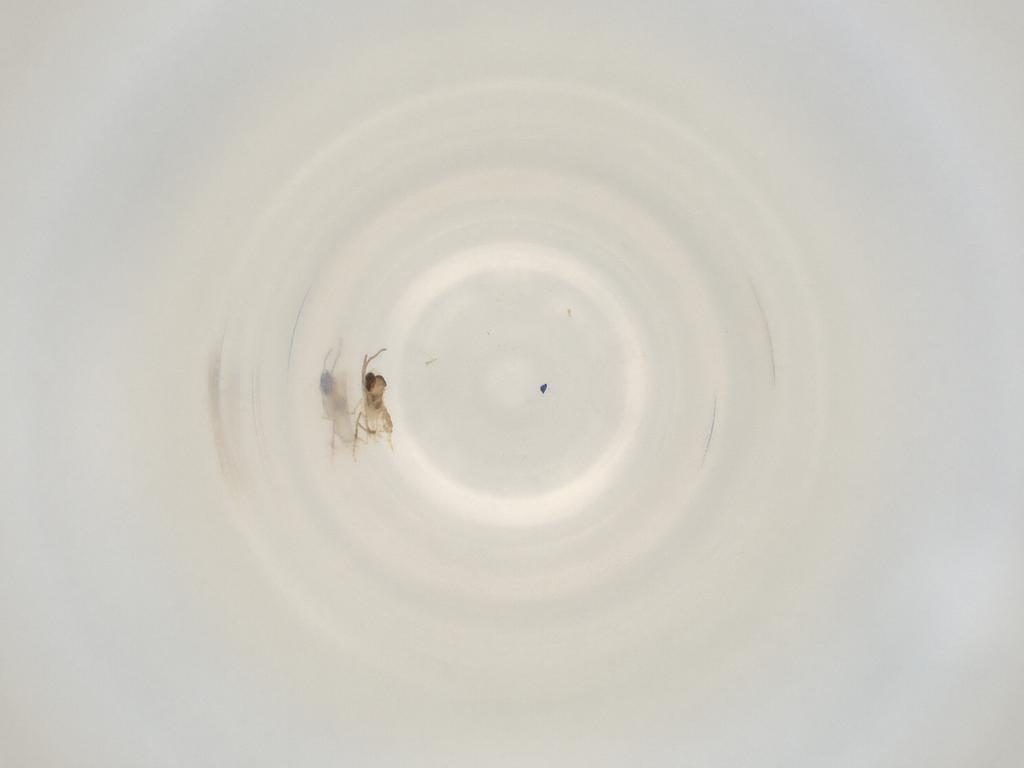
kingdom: Animalia
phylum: Arthropoda
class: Insecta
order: Diptera
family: Cecidomyiidae
